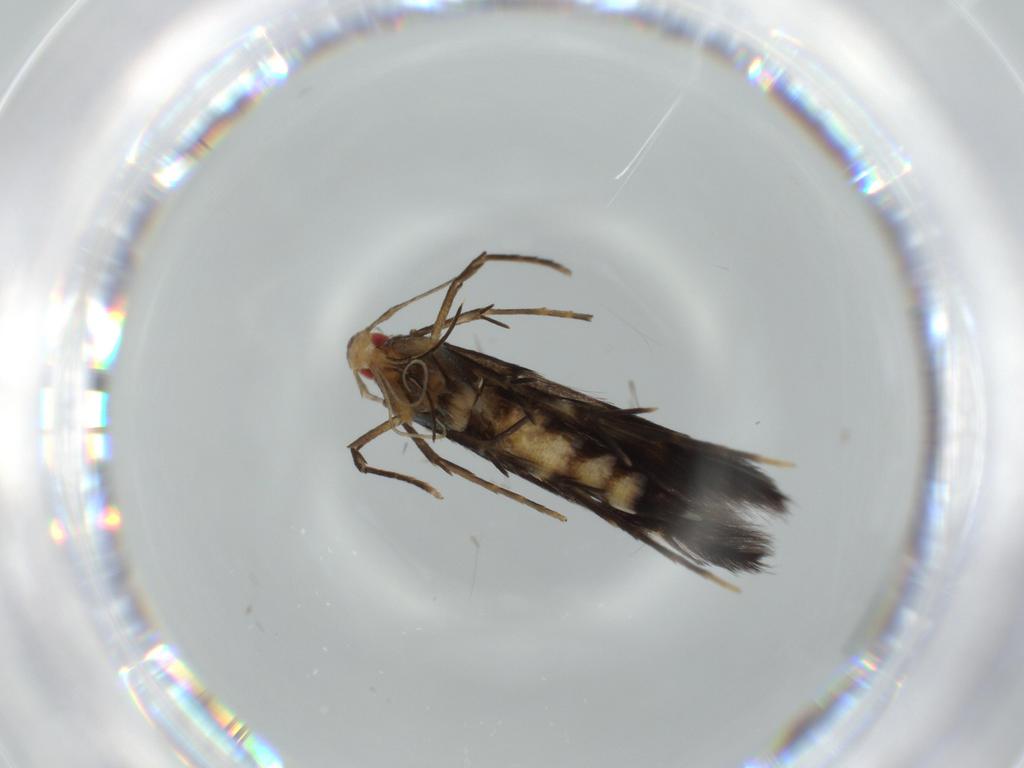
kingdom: Animalia
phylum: Arthropoda
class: Insecta
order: Lepidoptera
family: Cosmopterigidae
